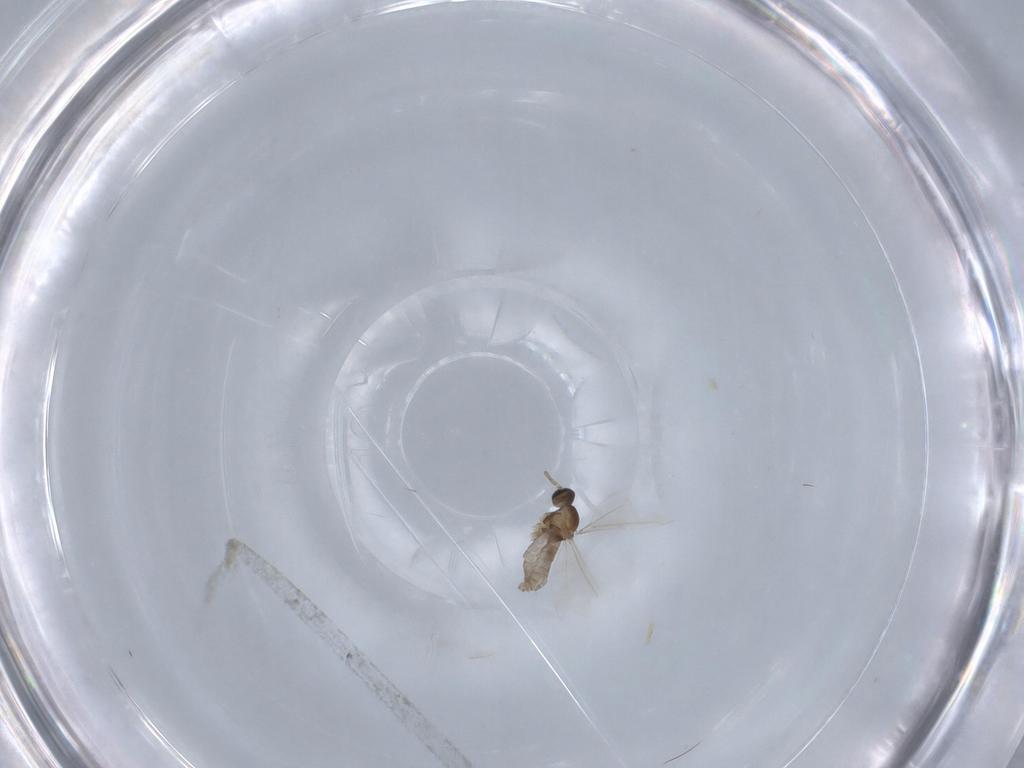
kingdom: Animalia
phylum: Arthropoda
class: Insecta
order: Diptera
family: Cecidomyiidae
